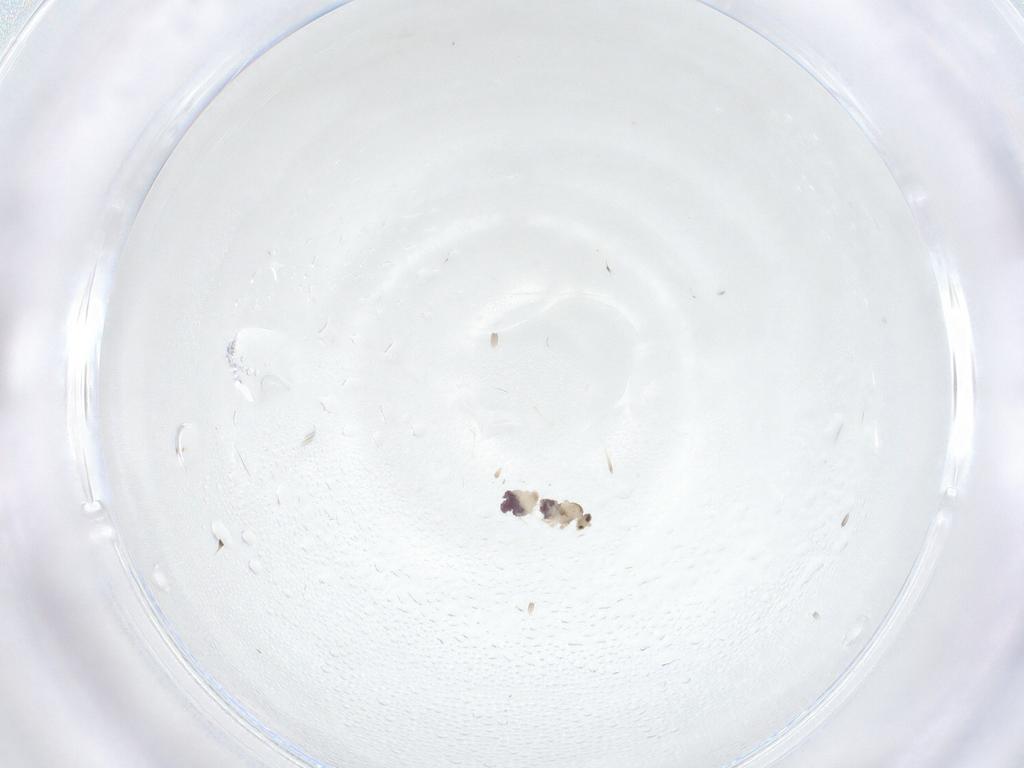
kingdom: Animalia
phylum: Arthropoda
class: Insecta
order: Diptera
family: Cecidomyiidae
